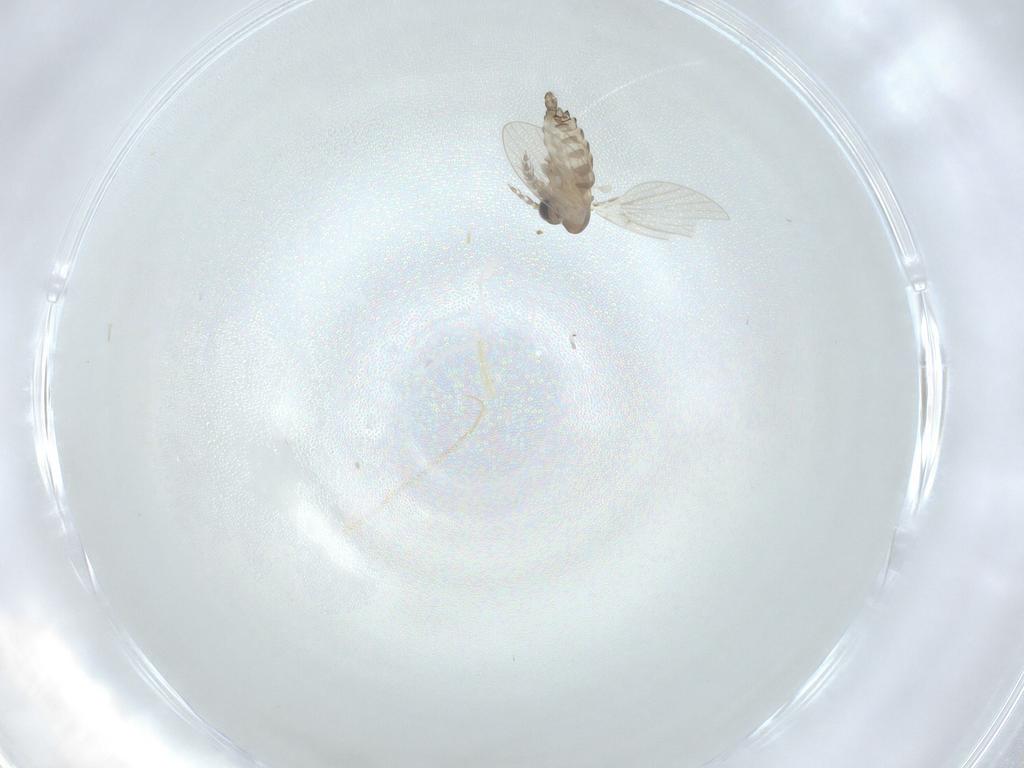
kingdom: Animalia
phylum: Arthropoda
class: Insecta
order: Diptera
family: Psychodidae
